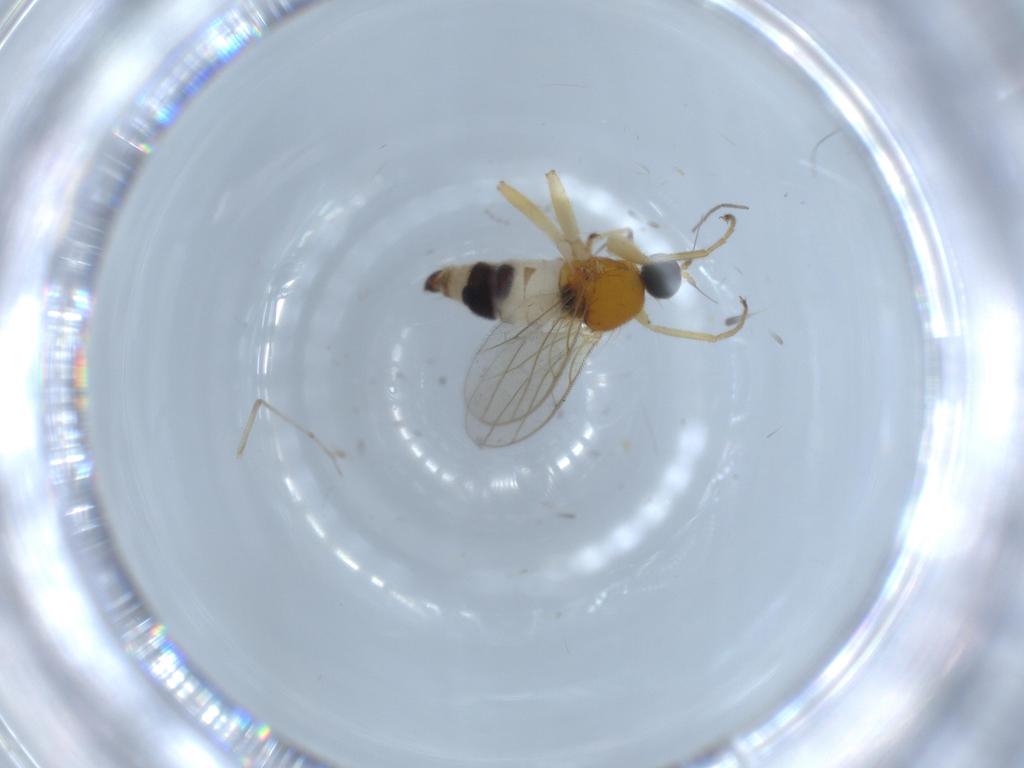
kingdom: Animalia
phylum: Arthropoda
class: Insecta
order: Diptera
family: Hybotidae
